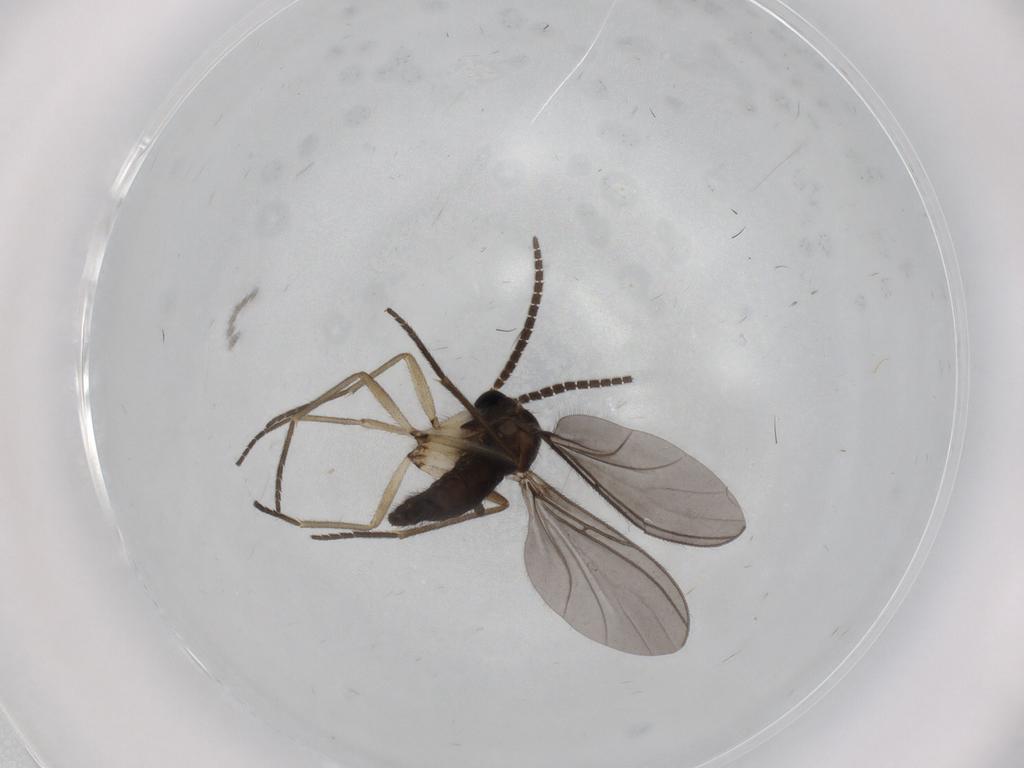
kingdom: Animalia
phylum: Arthropoda
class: Insecta
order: Diptera
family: Sciaridae
